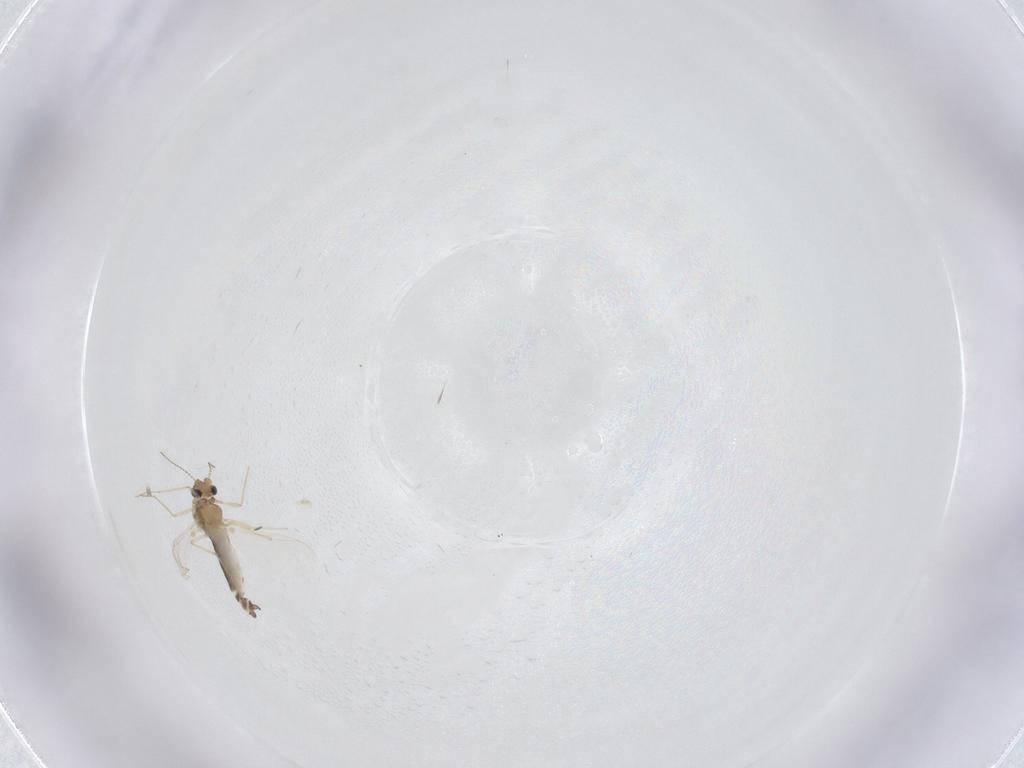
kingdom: Animalia
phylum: Arthropoda
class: Insecta
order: Diptera
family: Chironomidae
